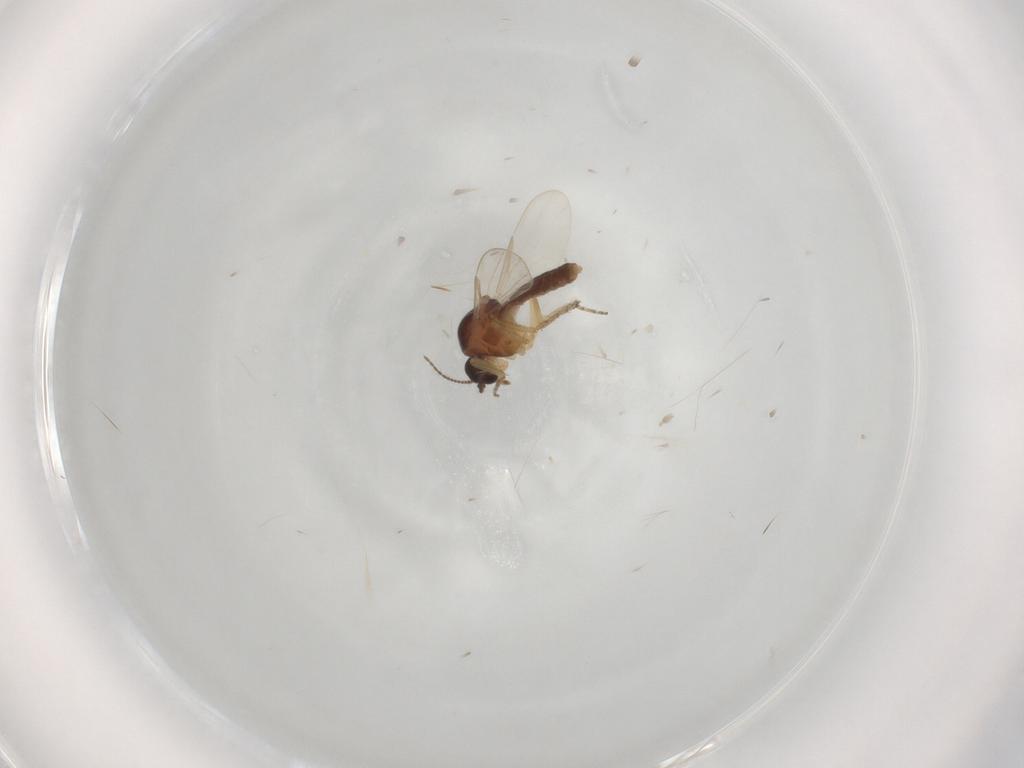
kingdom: Animalia
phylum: Arthropoda
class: Insecta
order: Diptera
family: Ceratopogonidae
